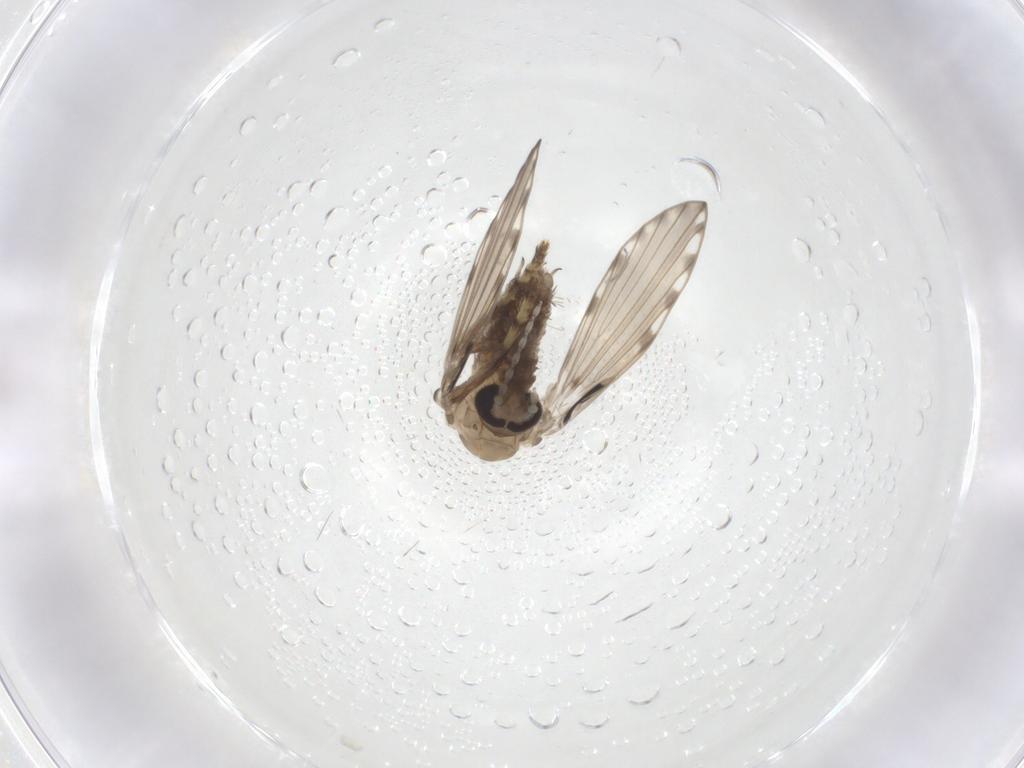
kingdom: Animalia
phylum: Arthropoda
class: Insecta
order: Diptera
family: Psychodidae
